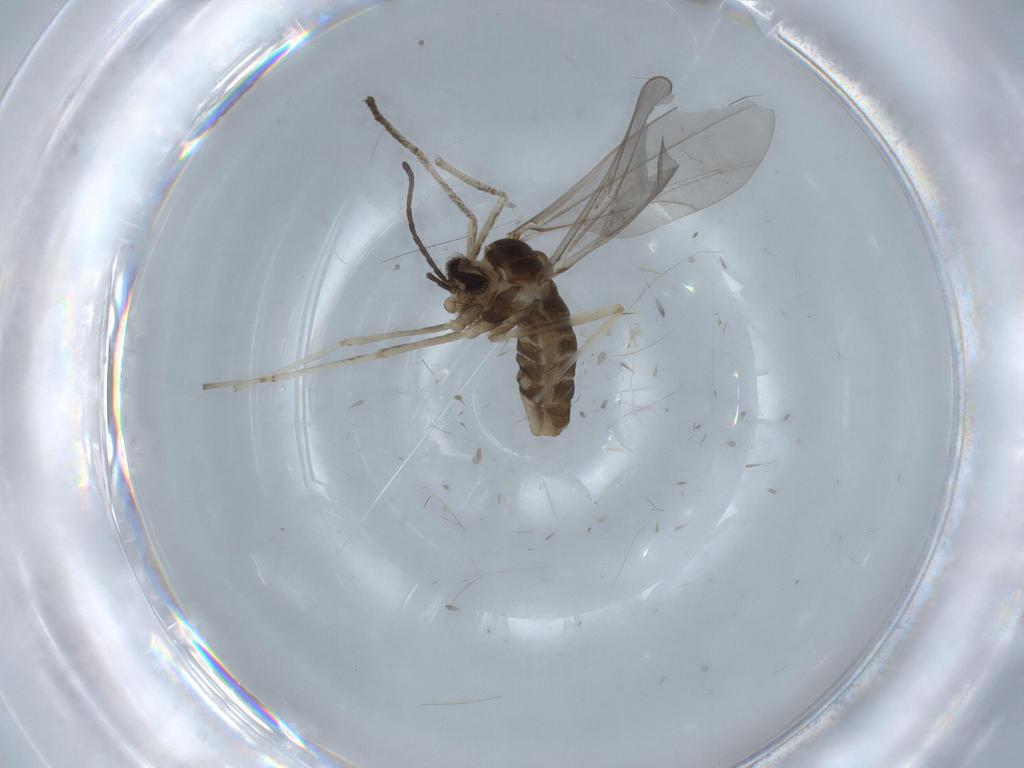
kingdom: Animalia
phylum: Arthropoda
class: Insecta
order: Diptera
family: Cecidomyiidae
